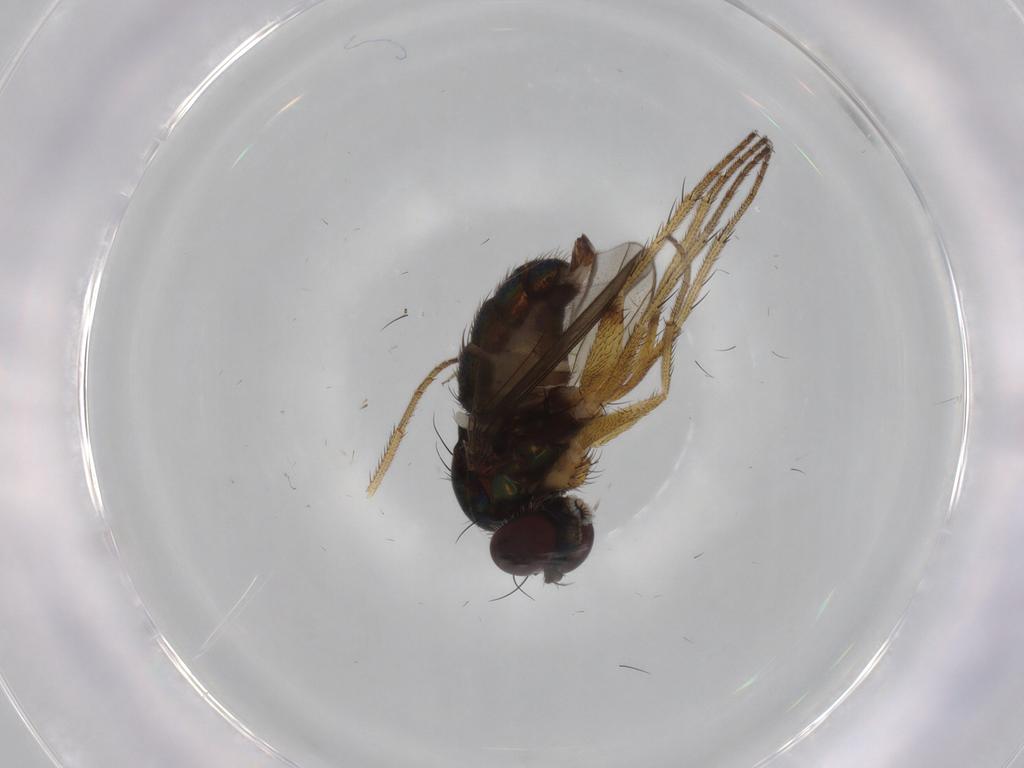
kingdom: Animalia
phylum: Arthropoda
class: Insecta
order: Diptera
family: Dolichopodidae
